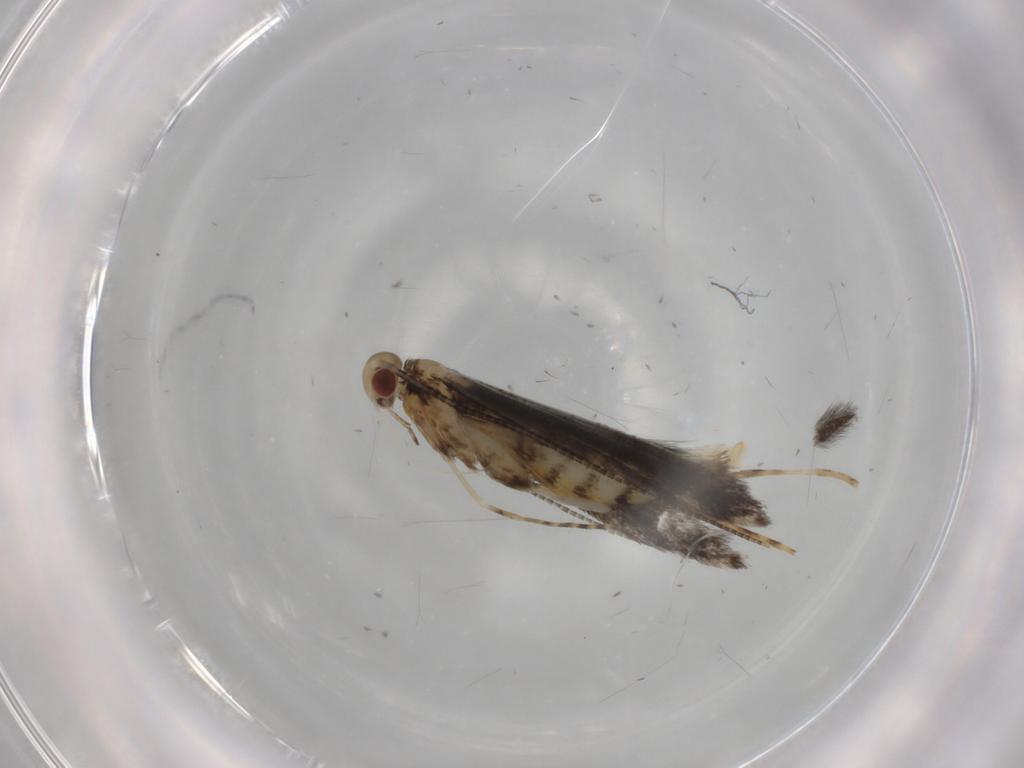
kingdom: Animalia
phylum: Arthropoda
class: Insecta
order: Lepidoptera
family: Gracillariidae
